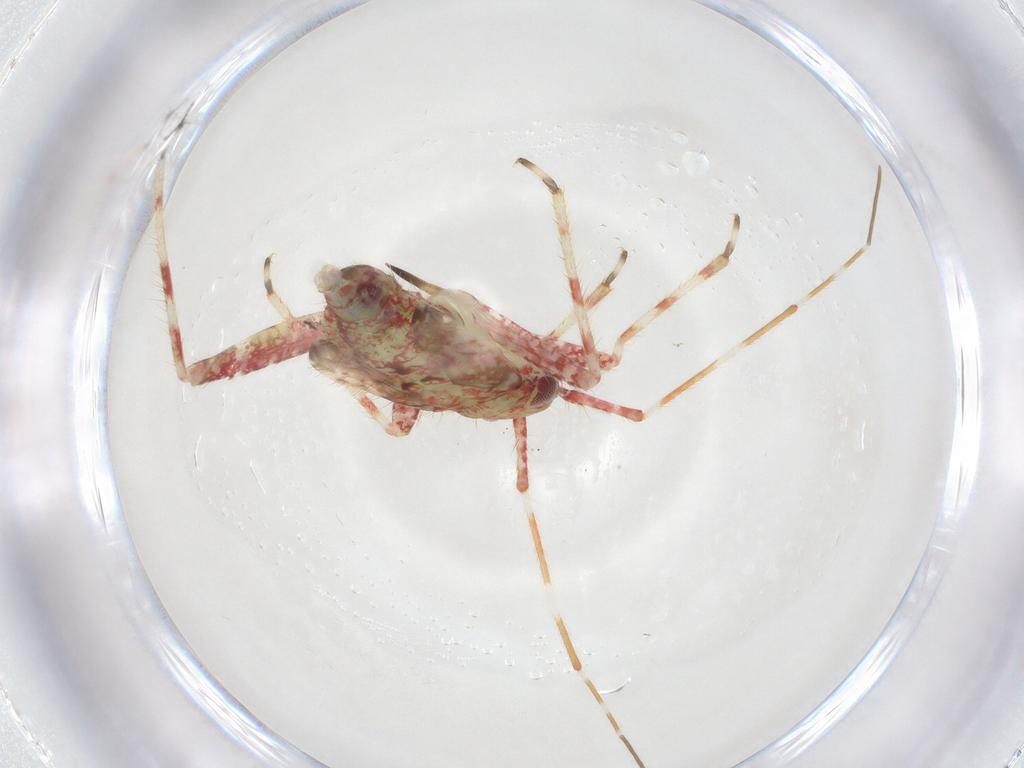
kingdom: Animalia
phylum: Arthropoda
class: Insecta
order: Hemiptera
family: Miridae
